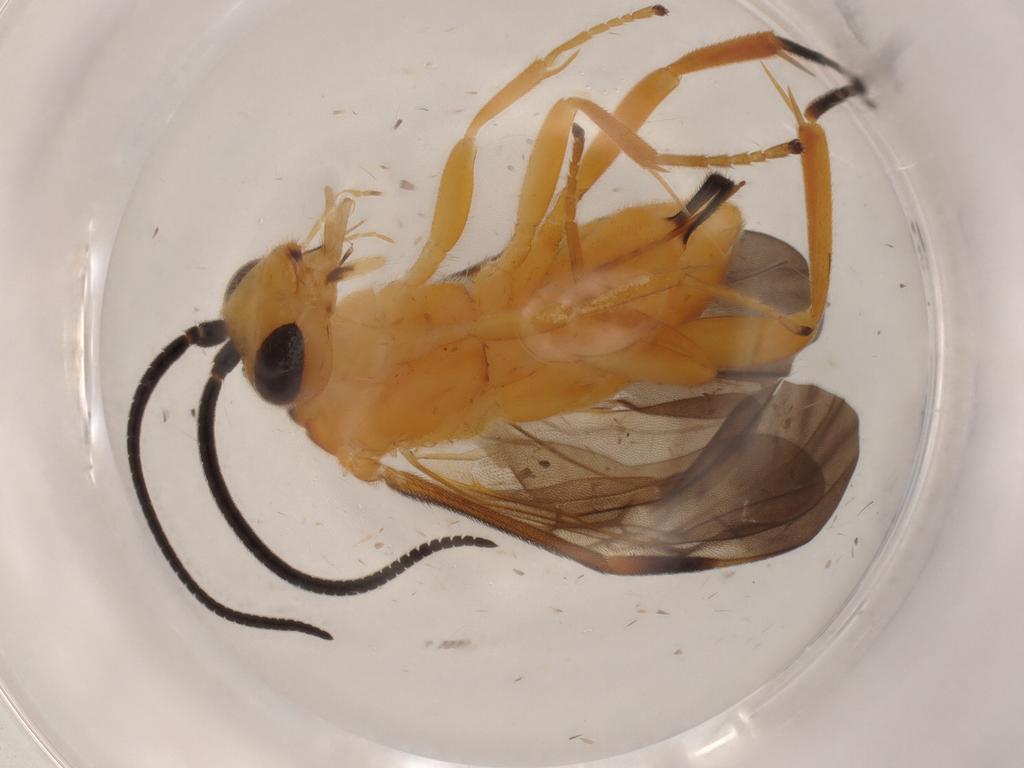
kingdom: Animalia
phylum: Arthropoda
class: Insecta
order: Hymenoptera
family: Braconidae
